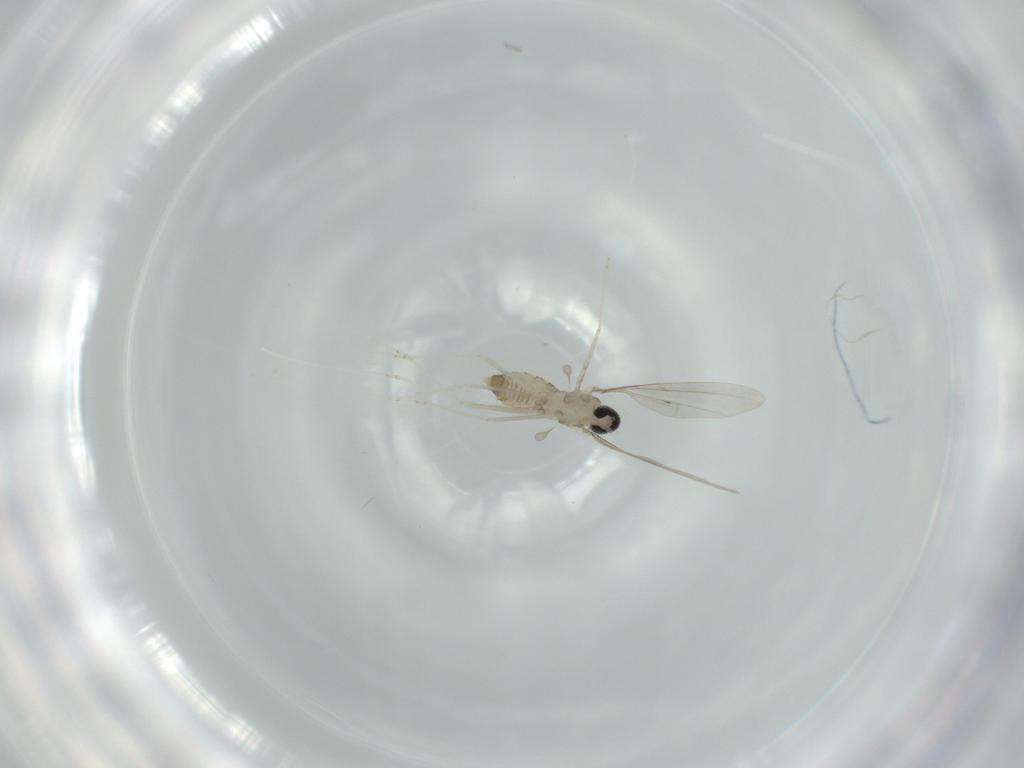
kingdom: Animalia
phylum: Arthropoda
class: Insecta
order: Diptera
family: Cecidomyiidae
